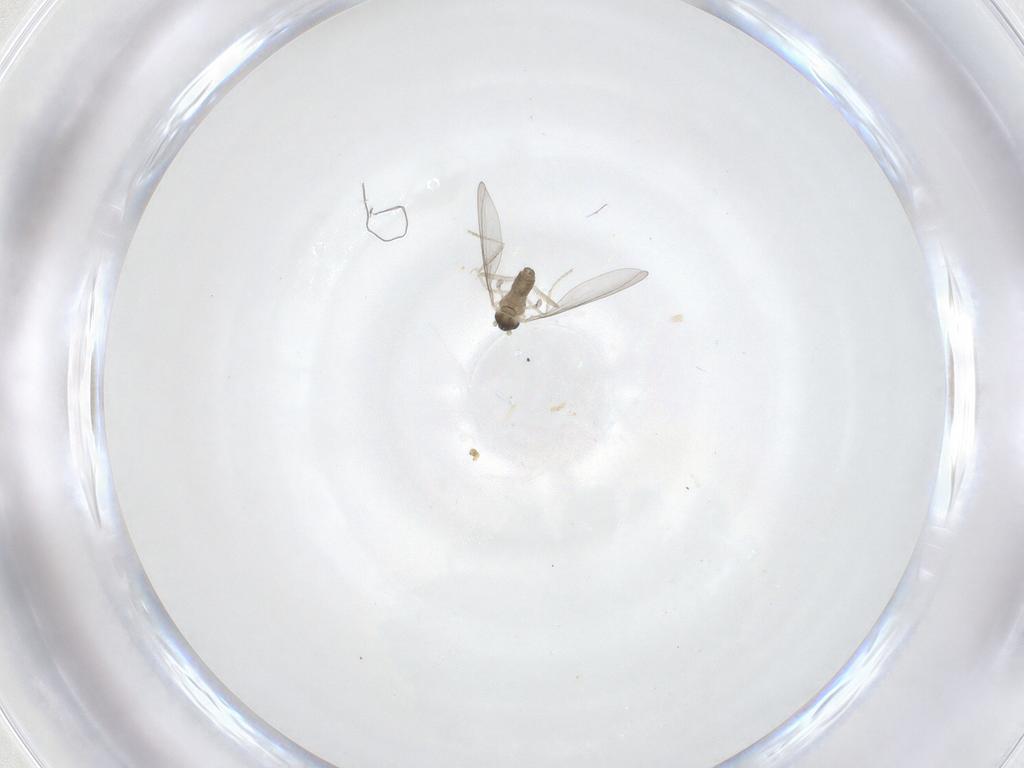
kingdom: Animalia
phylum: Arthropoda
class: Insecta
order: Diptera
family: Cecidomyiidae
